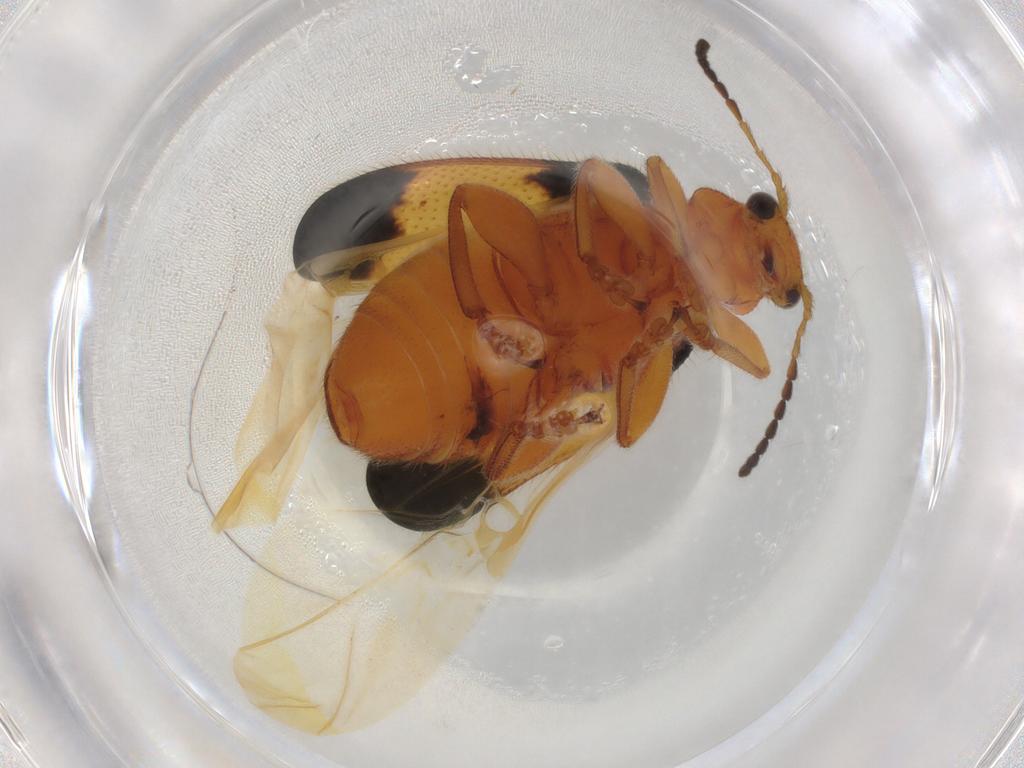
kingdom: Animalia
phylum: Arthropoda
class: Insecta
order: Coleoptera
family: Megalopodidae
